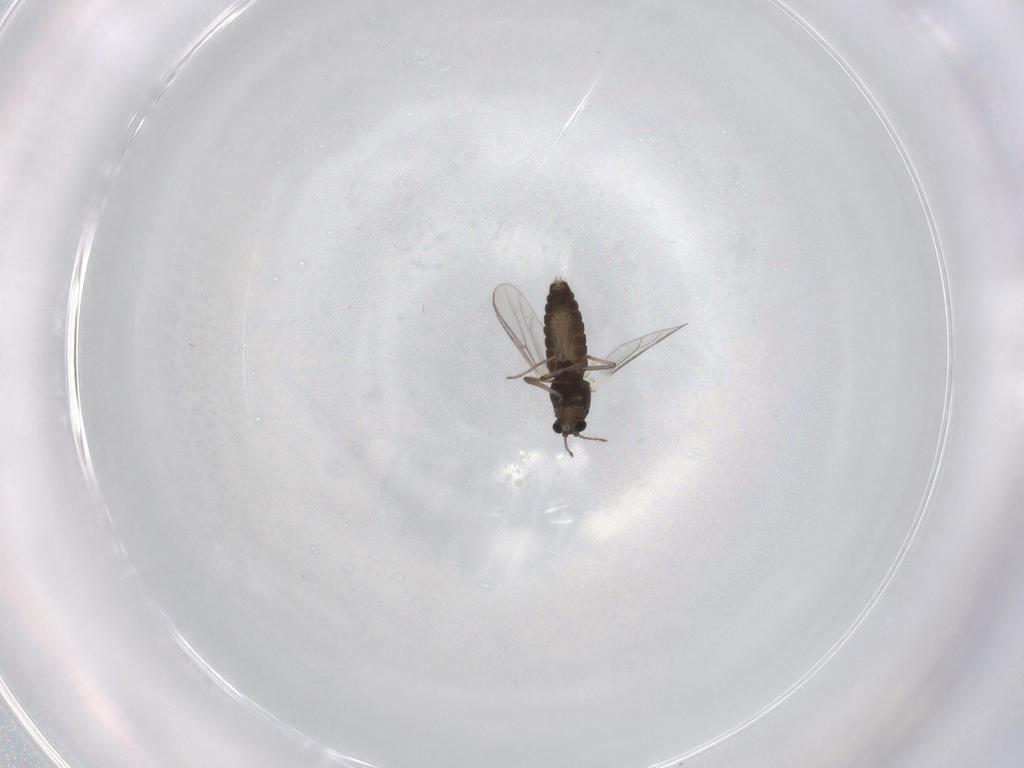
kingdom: Animalia
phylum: Arthropoda
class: Insecta
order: Diptera
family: Chironomidae
